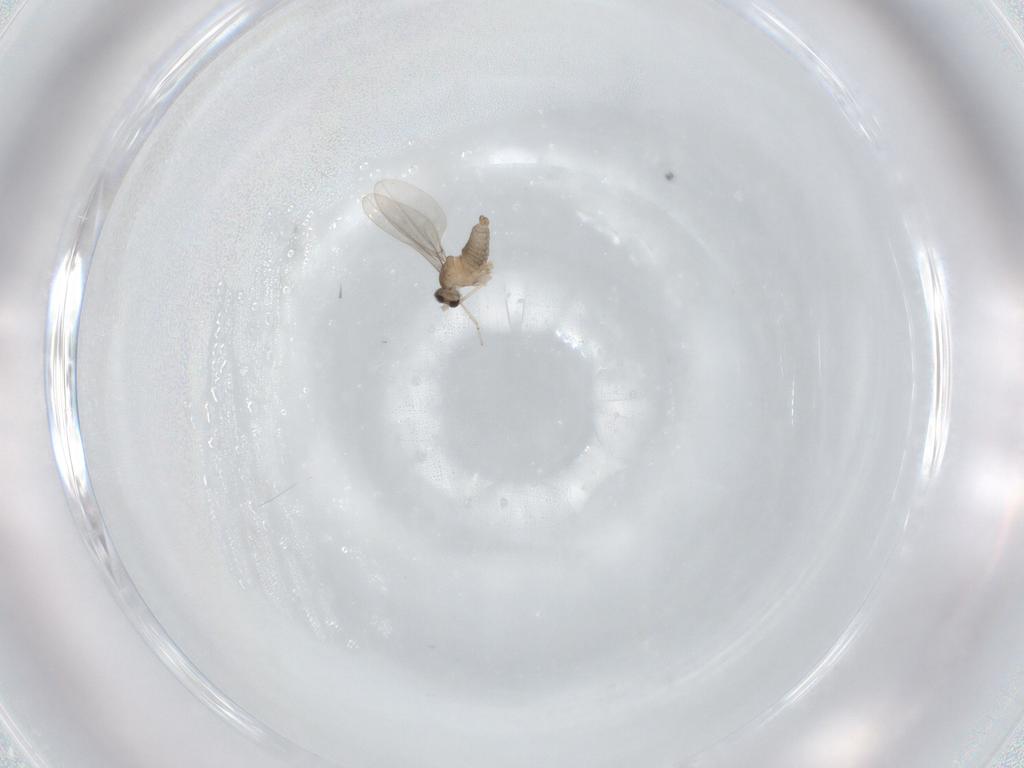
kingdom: Animalia
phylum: Arthropoda
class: Insecta
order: Diptera
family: Cecidomyiidae
